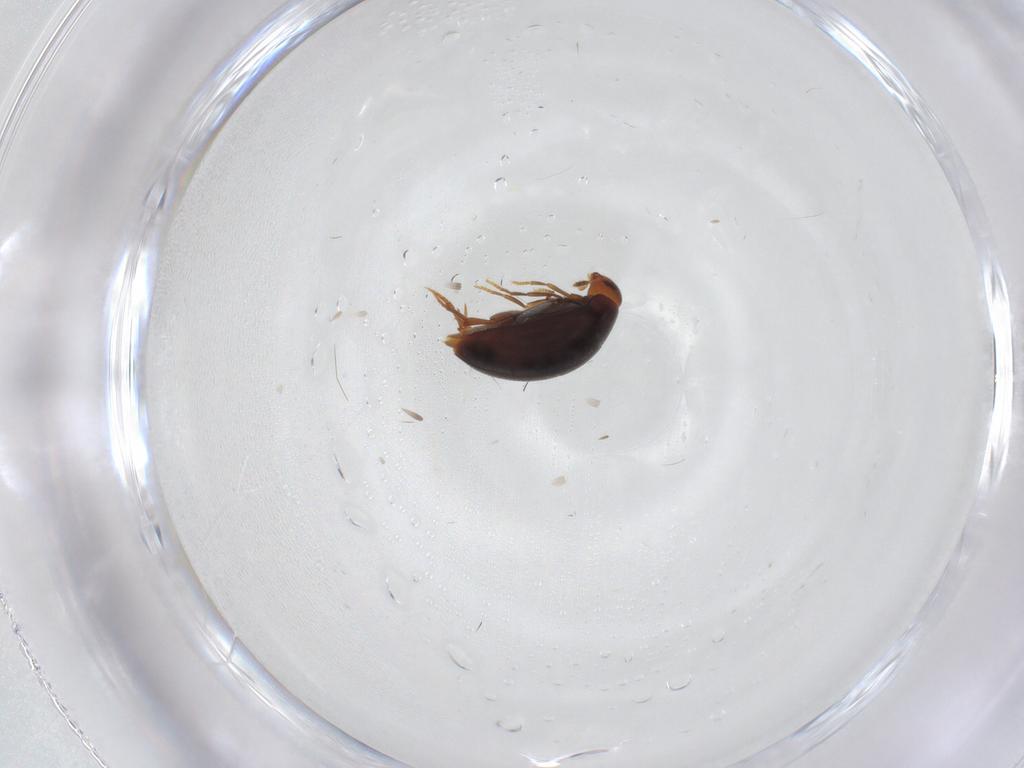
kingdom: Animalia
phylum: Arthropoda
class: Insecta
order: Coleoptera
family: Melandryidae
